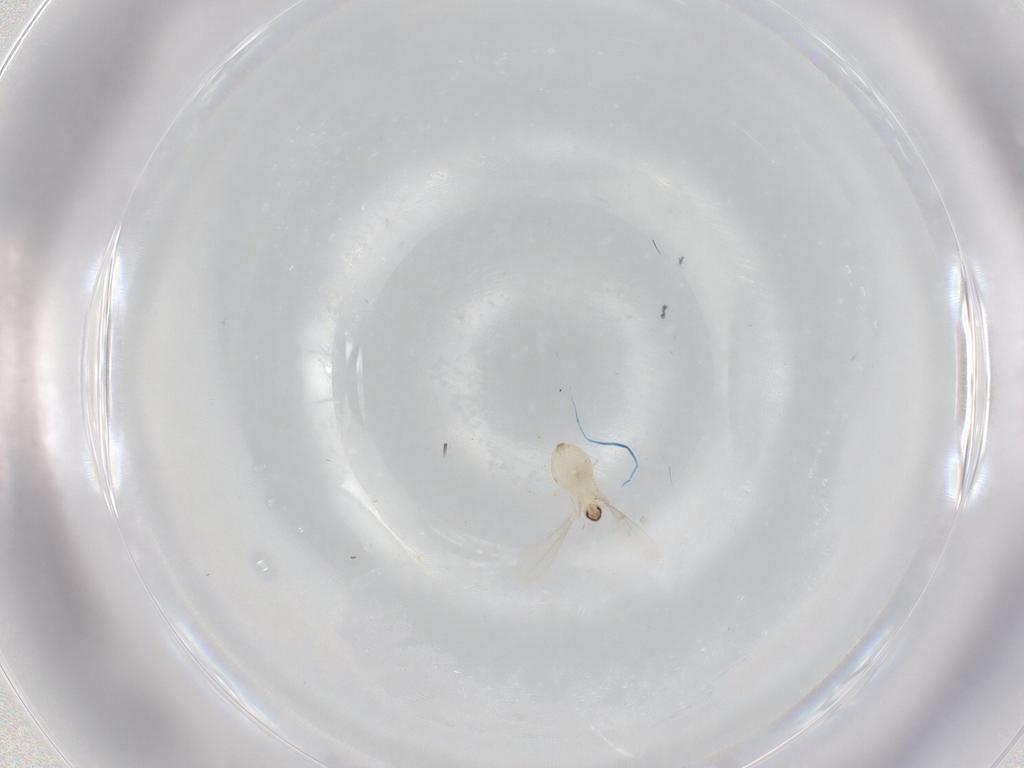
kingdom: Animalia
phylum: Arthropoda
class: Insecta
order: Diptera
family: Cecidomyiidae
